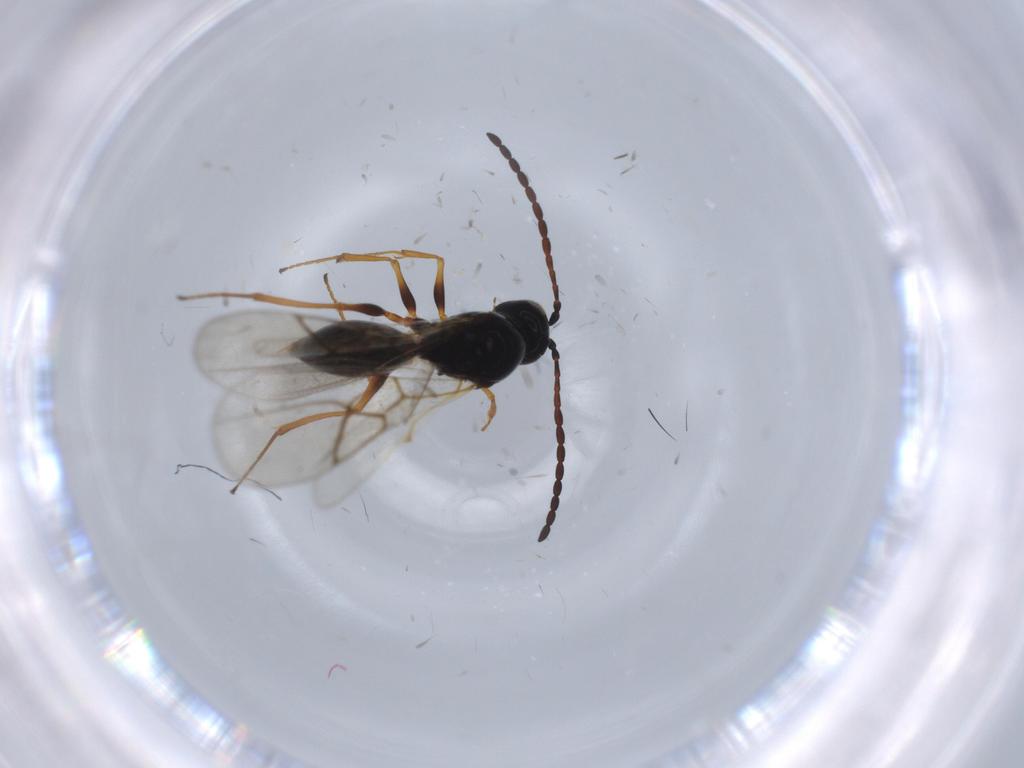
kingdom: Animalia
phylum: Arthropoda
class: Insecta
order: Hymenoptera
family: Figitidae
